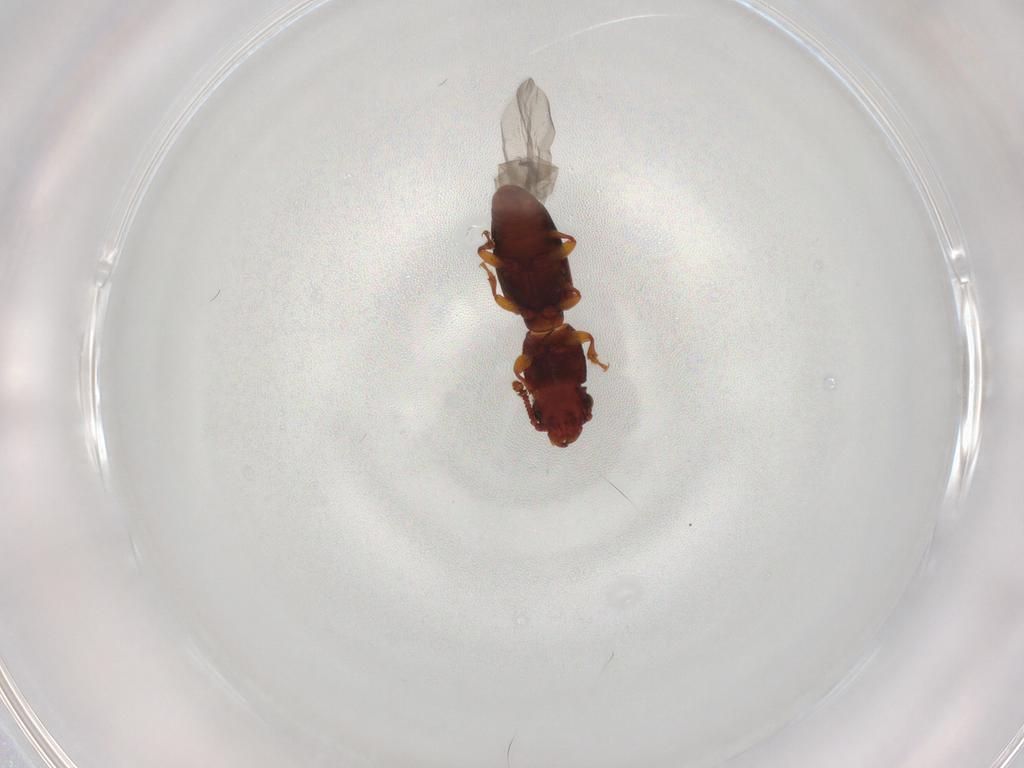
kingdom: Animalia
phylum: Arthropoda
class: Insecta
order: Coleoptera
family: Monotomidae
